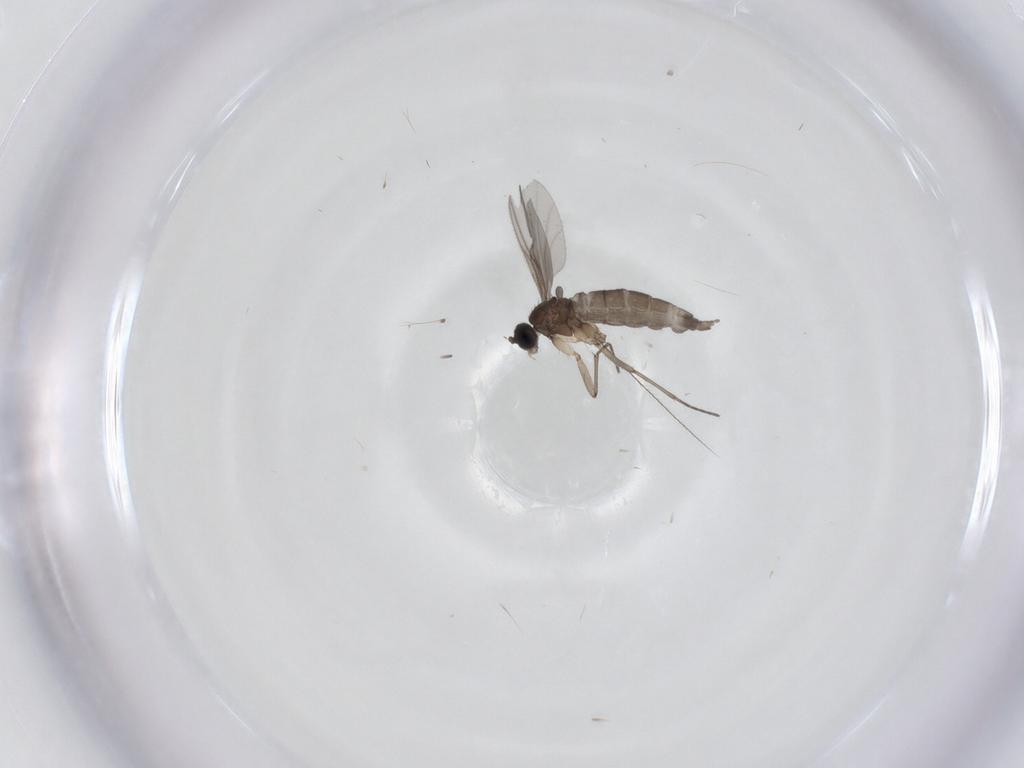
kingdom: Animalia
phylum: Arthropoda
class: Insecta
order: Diptera
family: Sciaridae
